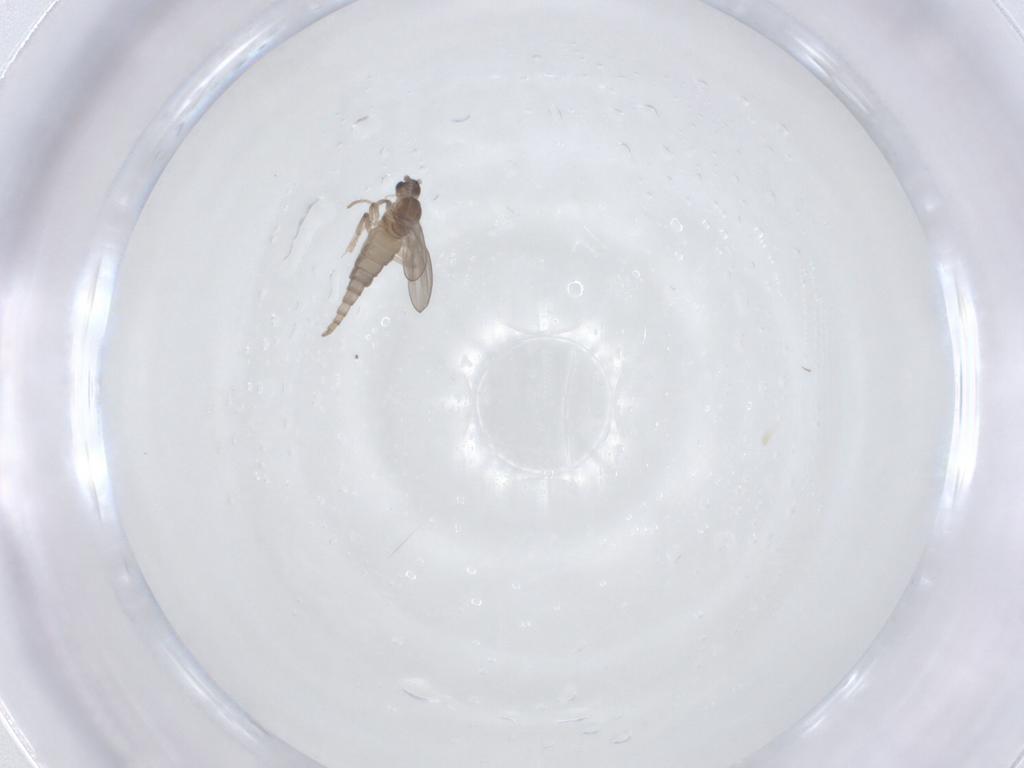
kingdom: Animalia
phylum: Arthropoda
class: Insecta
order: Diptera
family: Cecidomyiidae
